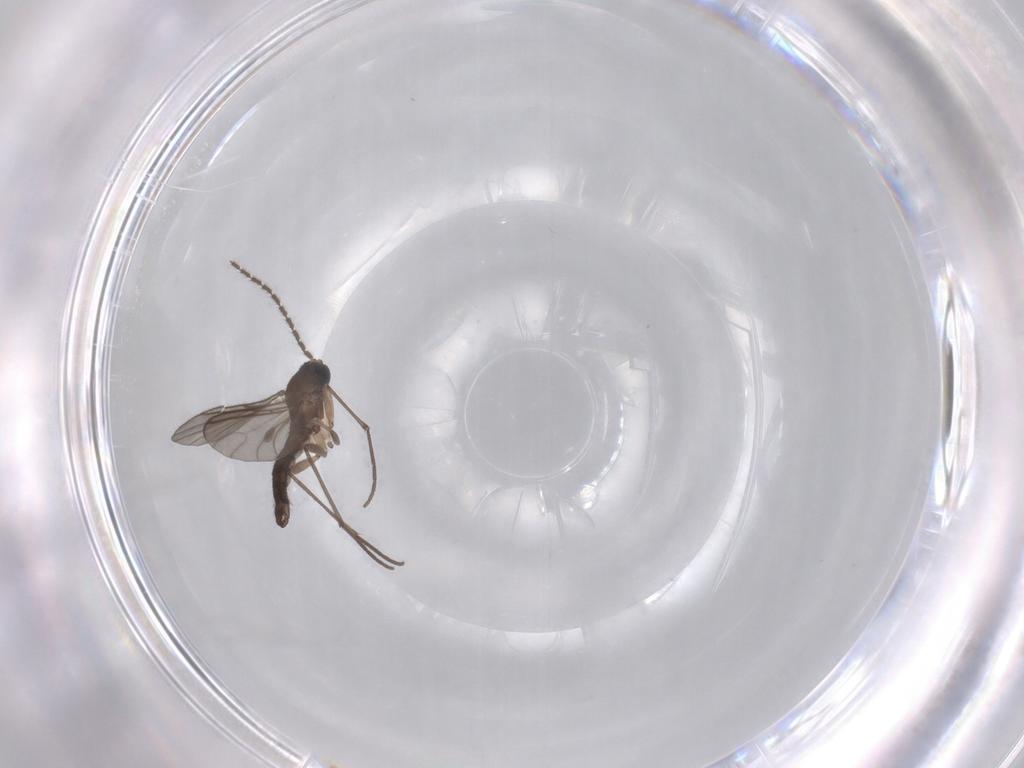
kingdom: Animalia
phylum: Arthropoda
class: Insecta
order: Diptera
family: Sciaridae
